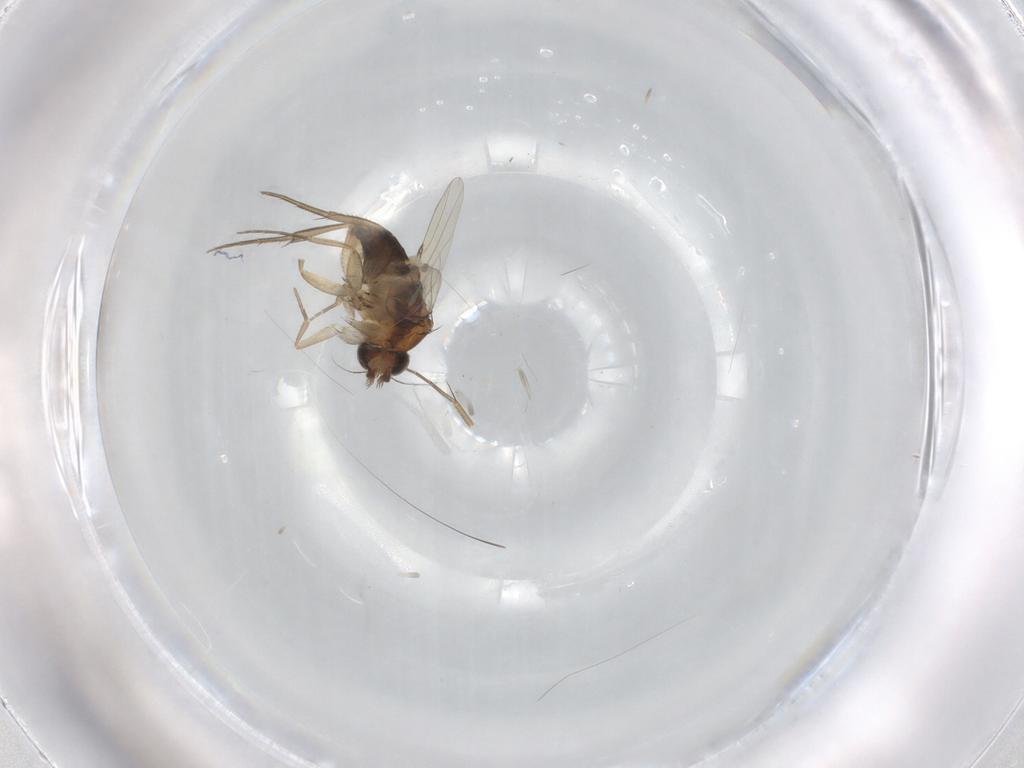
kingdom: Animalia
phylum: Arthropoda
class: Insecta
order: Diptera
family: Phoridae
